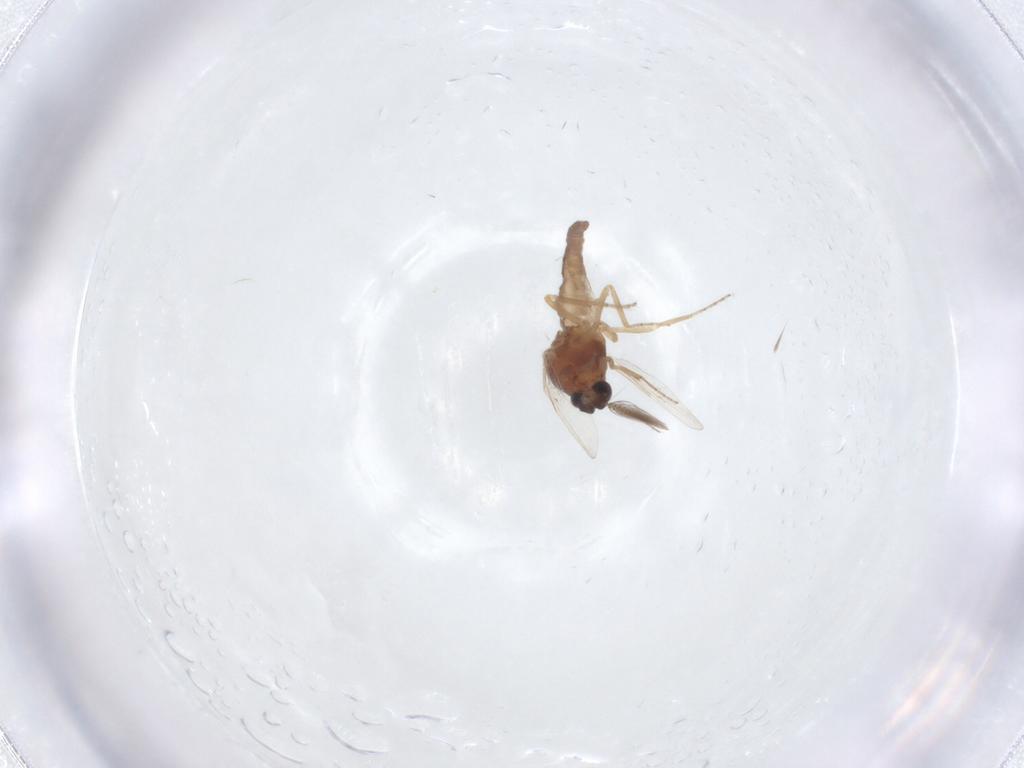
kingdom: Animalia
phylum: Arthropoda
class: Insecta
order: Diptera
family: Ceratopogonidae
